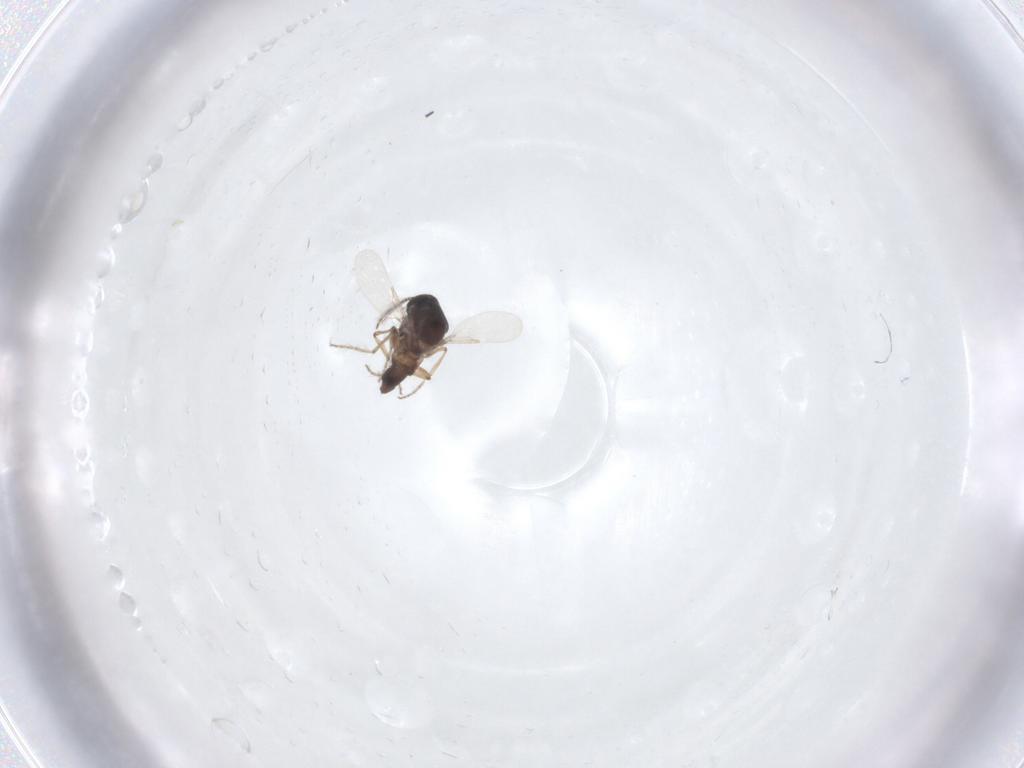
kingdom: Animalia
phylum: Arthropoda
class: Insecta
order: Diptera
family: Ceratopogonidae
